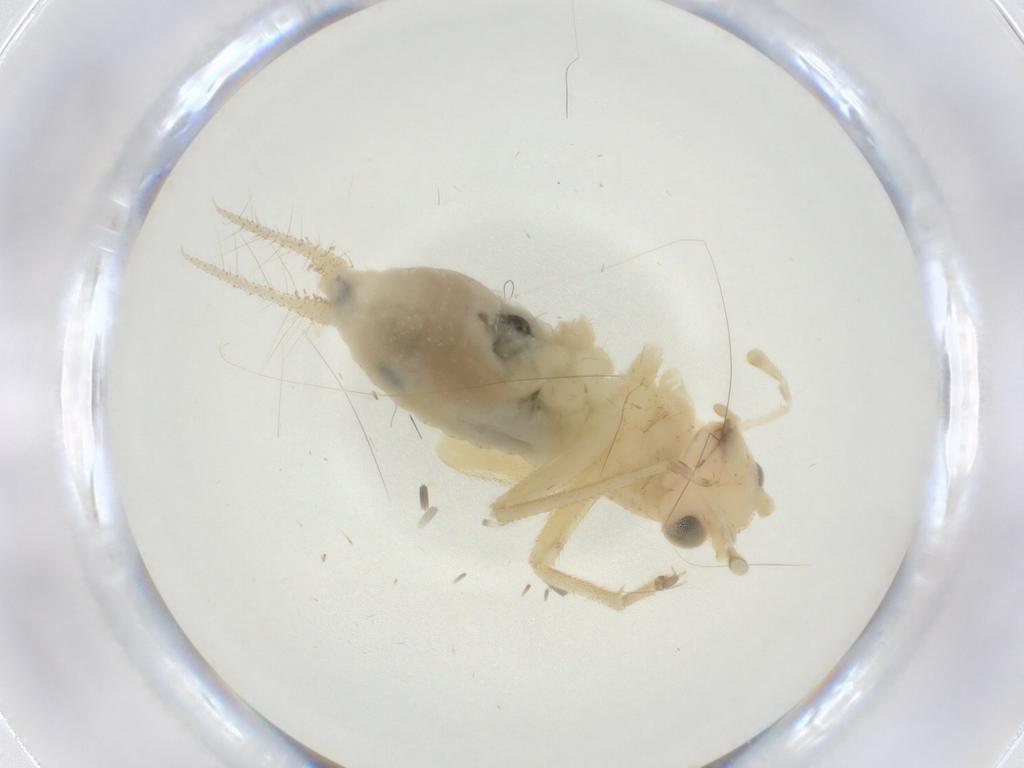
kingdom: Animalia
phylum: Arthropoda
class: Insecta
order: Orthoptera
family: Trigonidiidae
